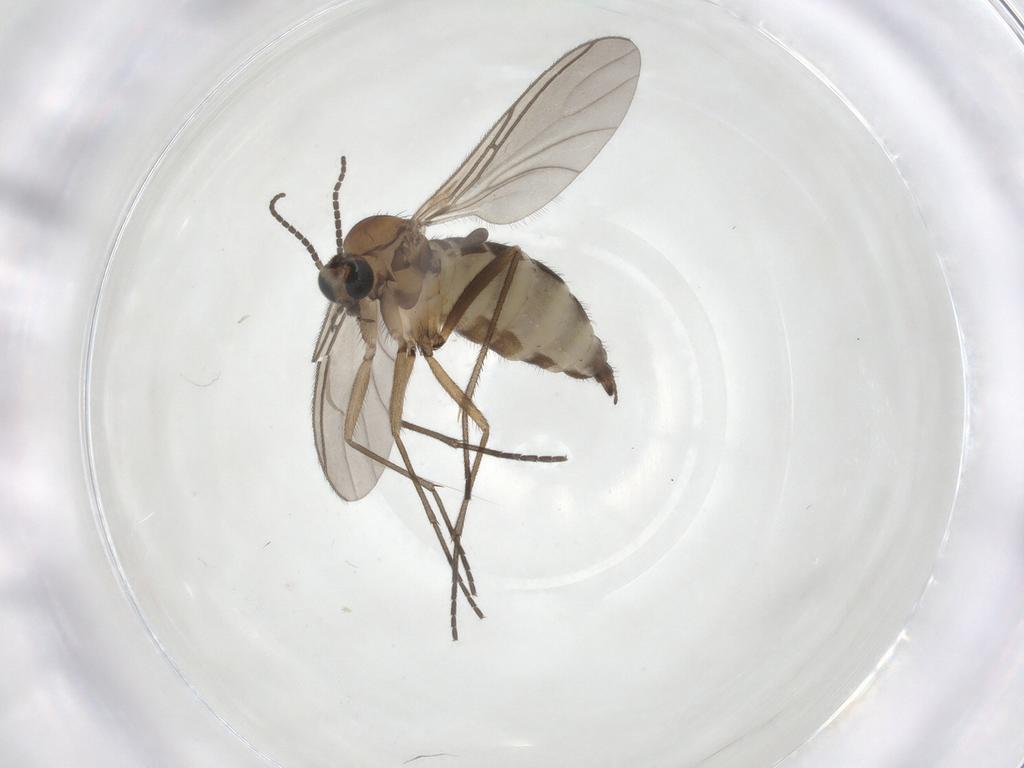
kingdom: Animalia
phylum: Arthropoda
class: Insecta
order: Diptera
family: Sciaridae
